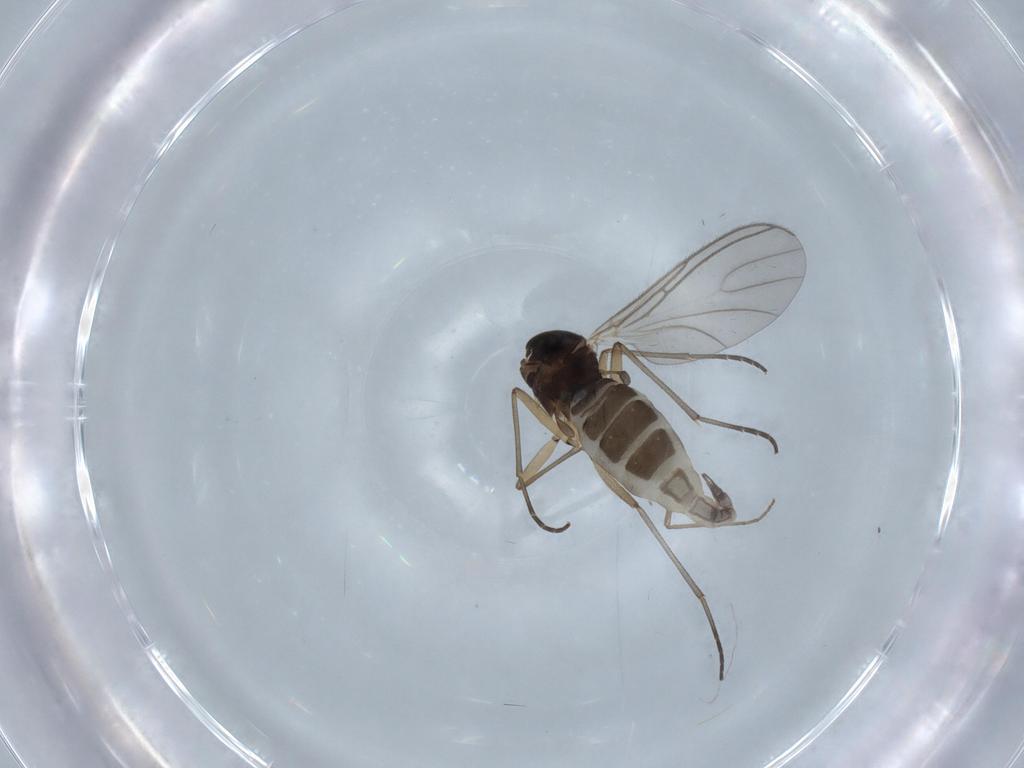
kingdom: Animalia
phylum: Arthropoda
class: Insecta
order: Diptera
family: Sciaridae
